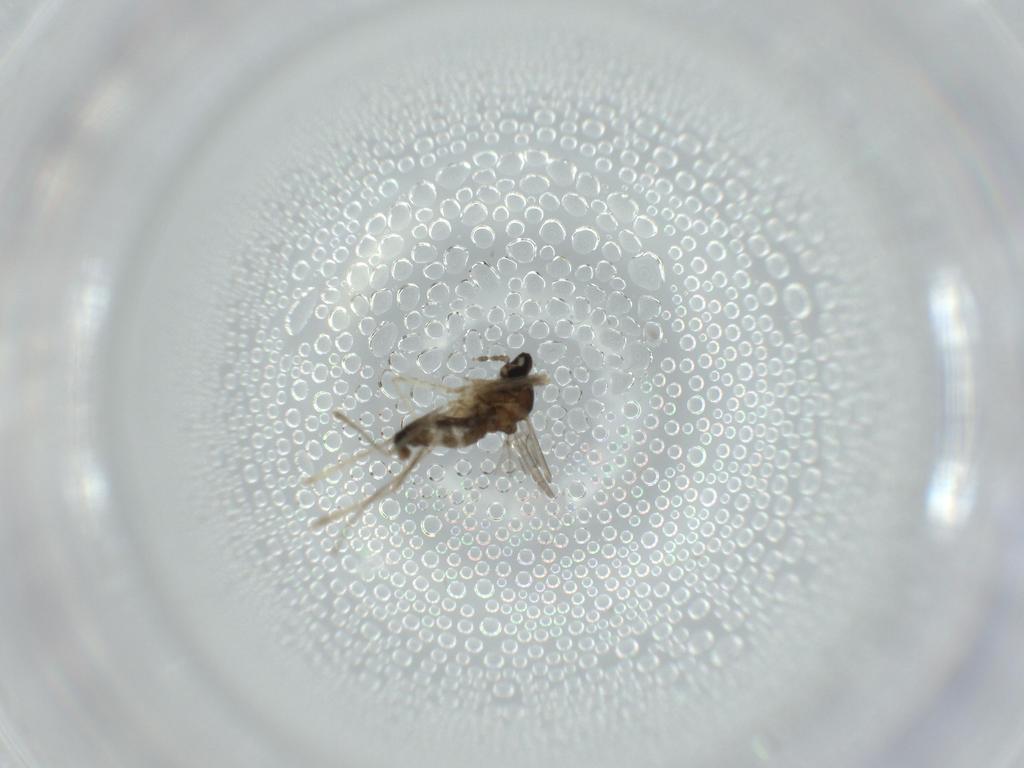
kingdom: Animalia
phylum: Arthropoda
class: Insecta
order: Diptera
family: Cecidomyiidae
